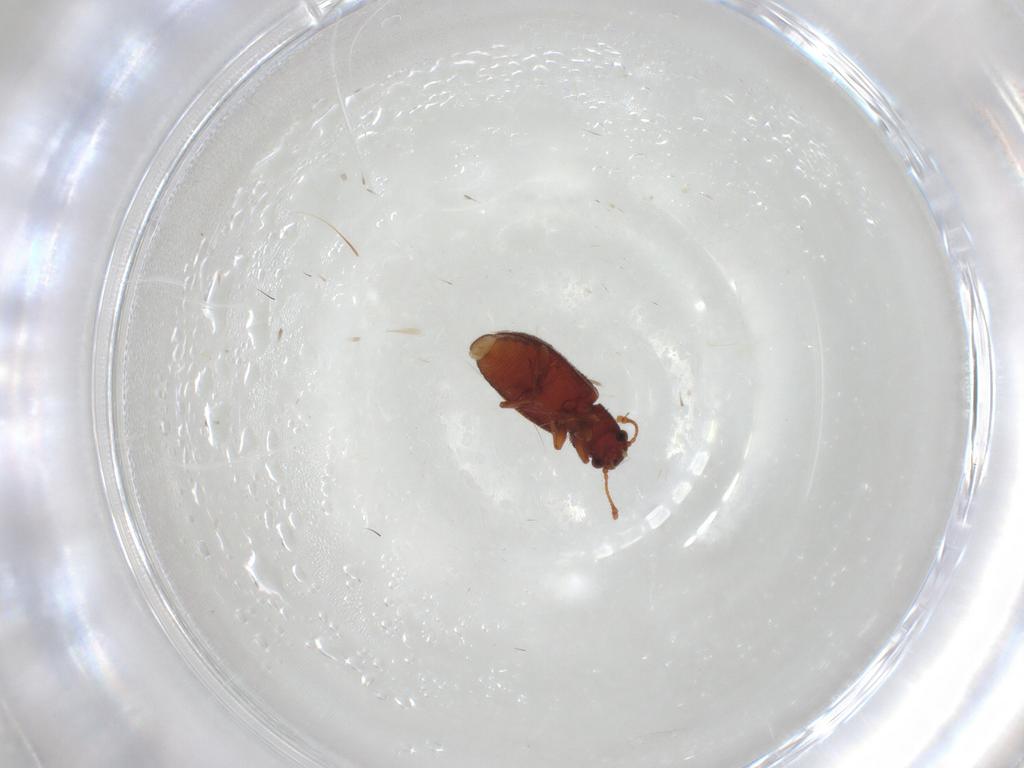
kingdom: Animalia
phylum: Arthropoda
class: Insecta
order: Coleoptera
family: Mycetophagidae
